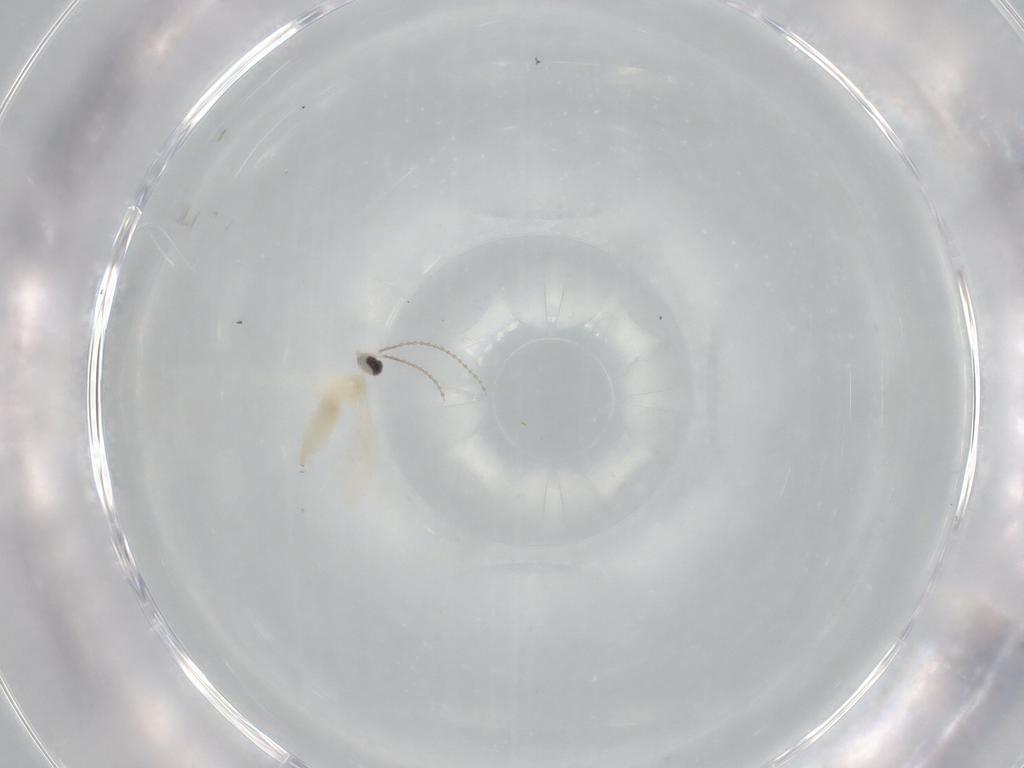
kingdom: Animalia
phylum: Arthropoda
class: Insecta
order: Diptera
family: Cecidomyiidae
